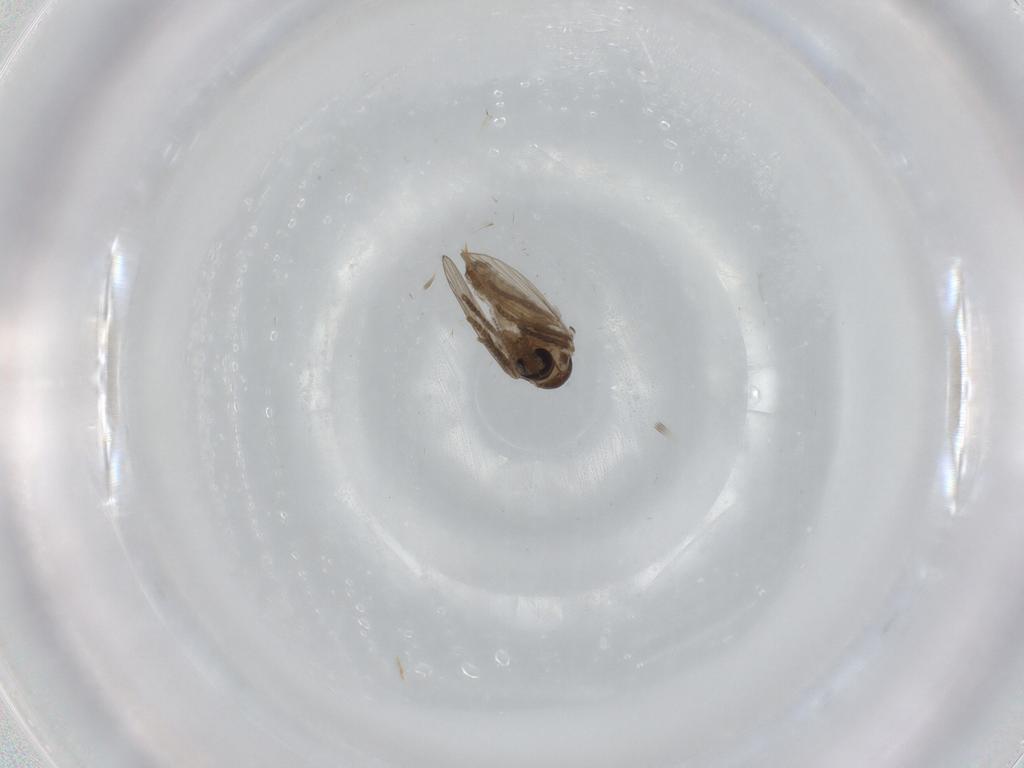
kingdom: Animalia
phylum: Arthropoda
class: Insecta
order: Diptera
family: Psychodidae
